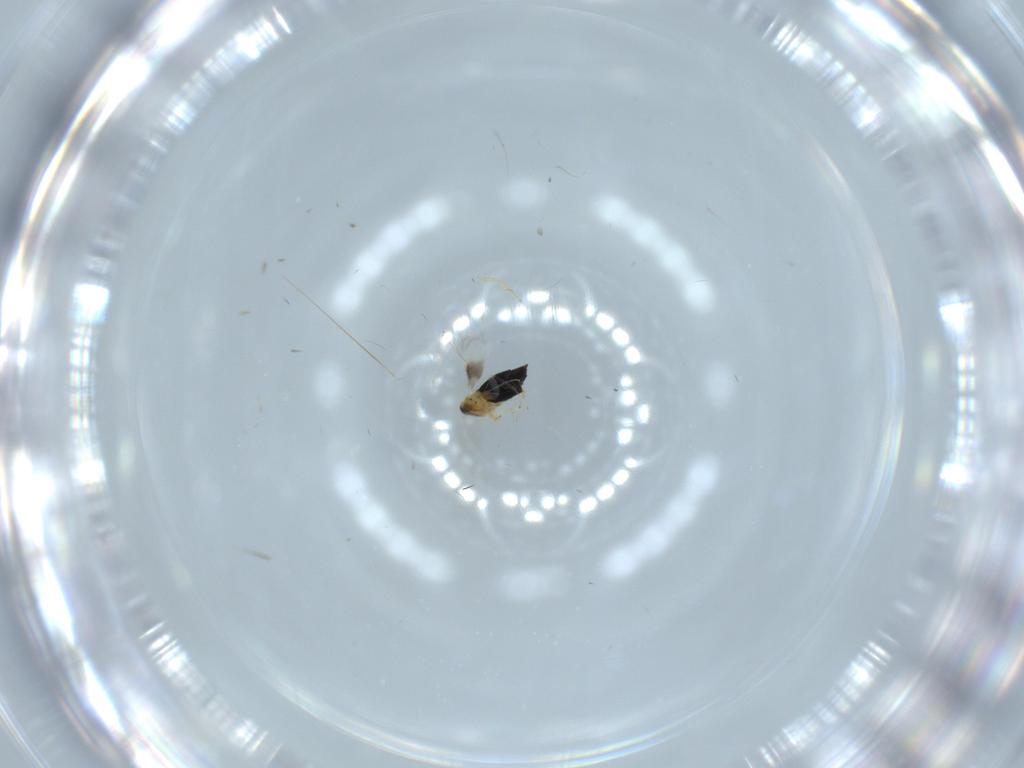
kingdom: Animalia
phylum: Arthropoda
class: Insecta
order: Hymenoptera
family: Signiphoridae
